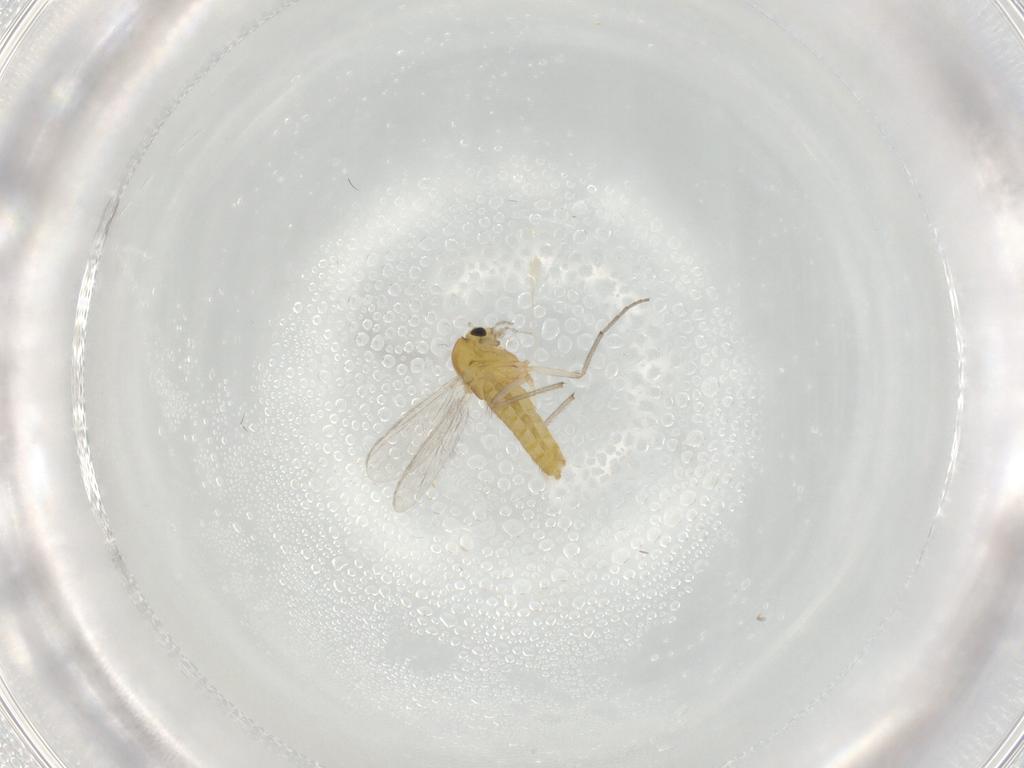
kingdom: Animalia
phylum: Arthropoda
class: Insecta
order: Diptera
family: Chironomidae
